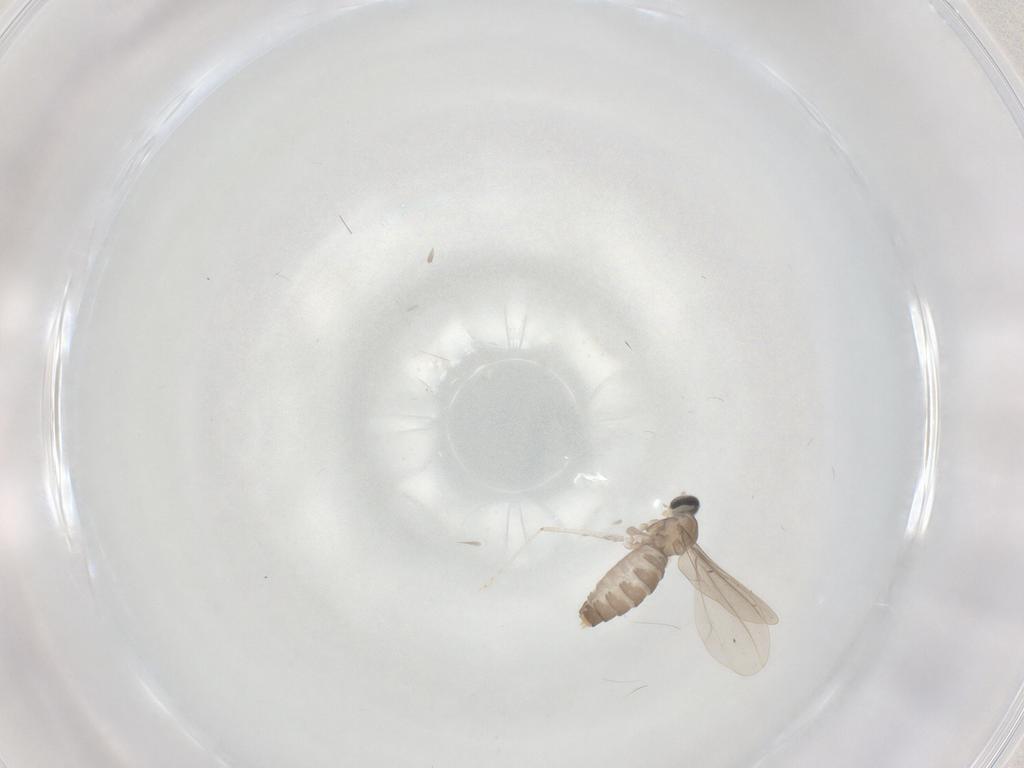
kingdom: Animalia
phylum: Arthropoda
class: Insecta
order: Diptera
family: Cecidomyiidae
